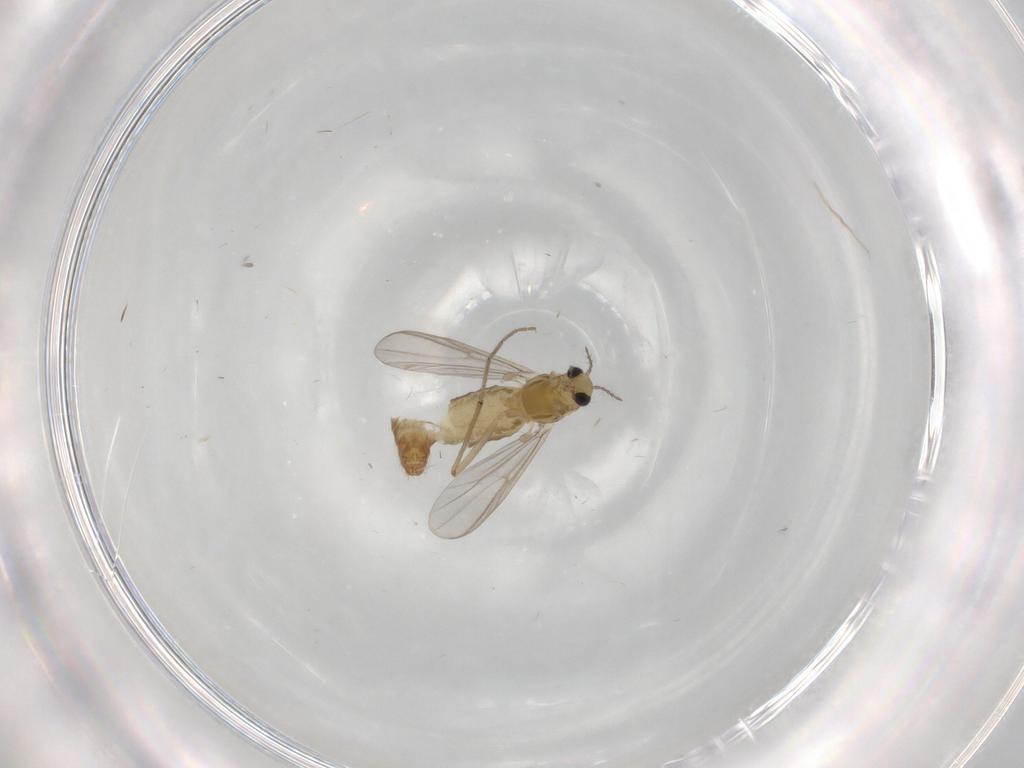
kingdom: Animalia
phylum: Arthropoda
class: Insecta
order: Diptera
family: Chironomidae
